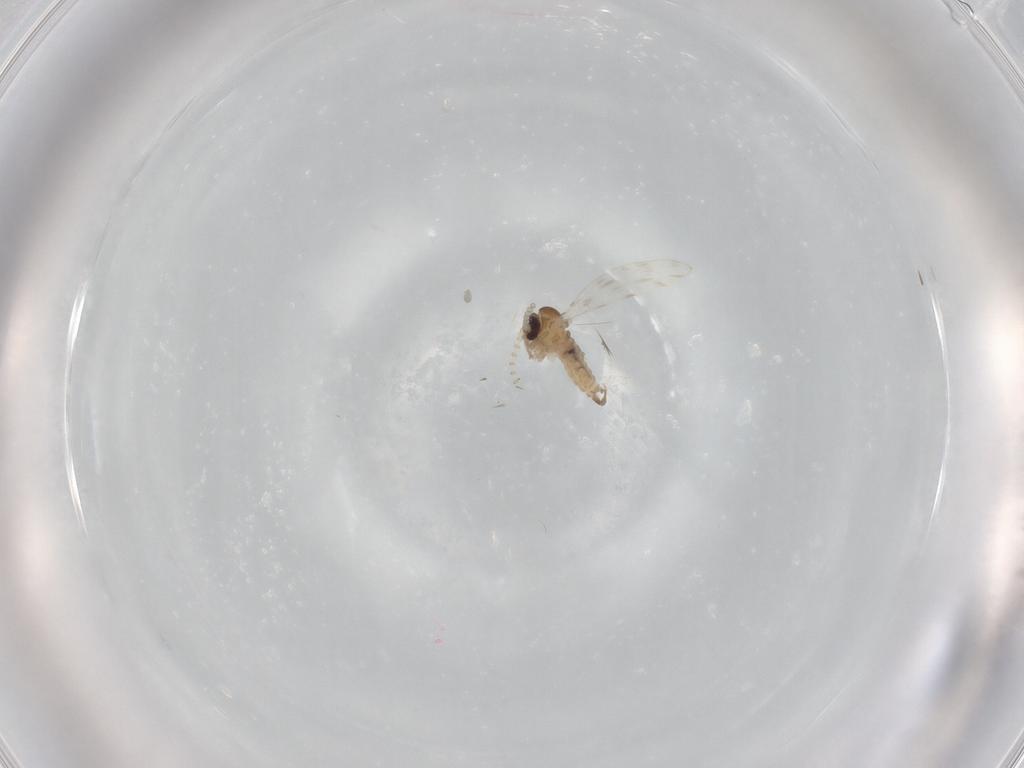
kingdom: Animalia
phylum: Arthropoda
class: Insecta
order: Diptera
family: Psychodidae
